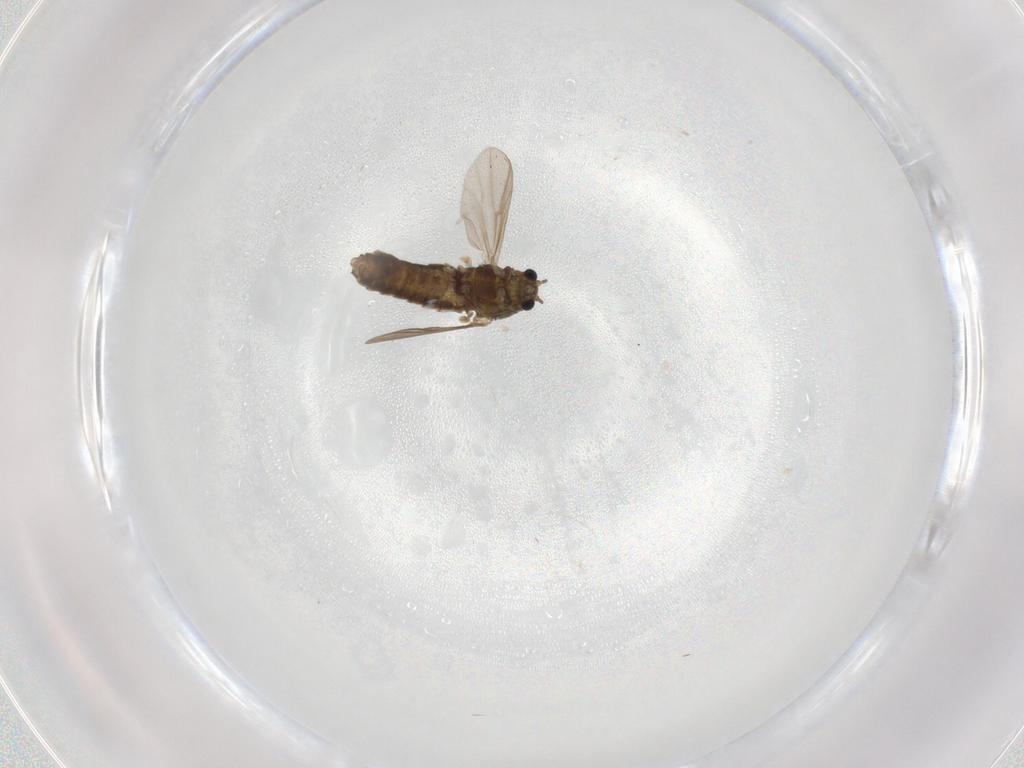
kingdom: Animalia
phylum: Arthropoda
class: Insecta
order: Diptera
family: Chironomidae
